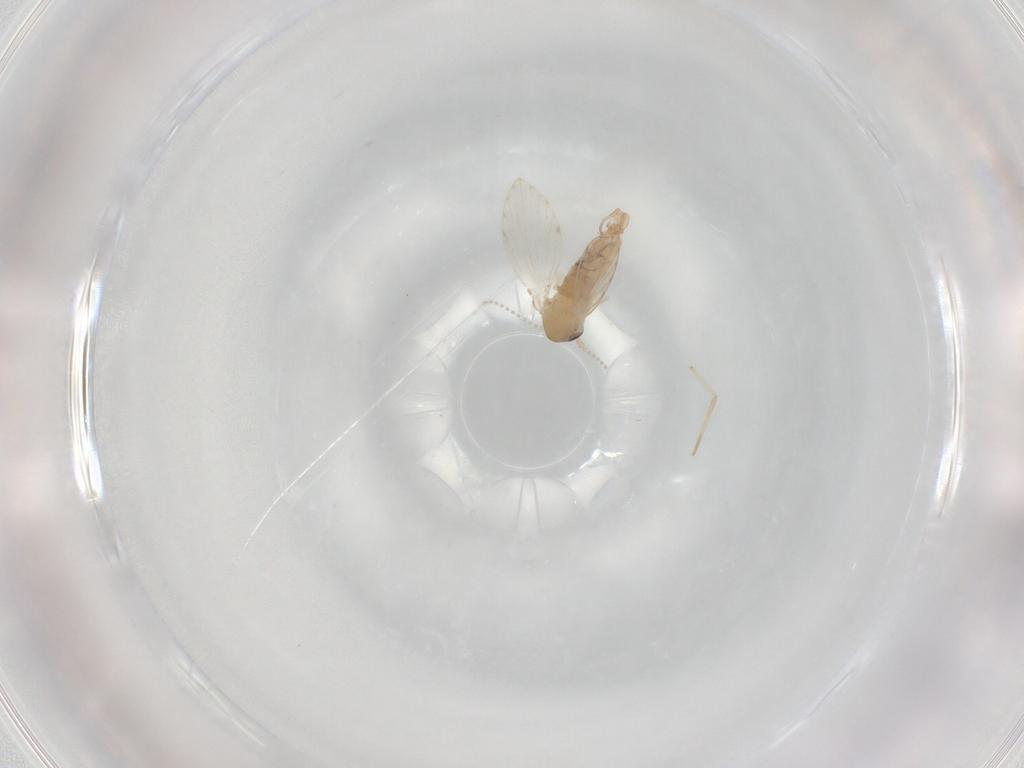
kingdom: Animalia
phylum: Arthropoda
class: Insecta
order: Diptera
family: Psychodidae
